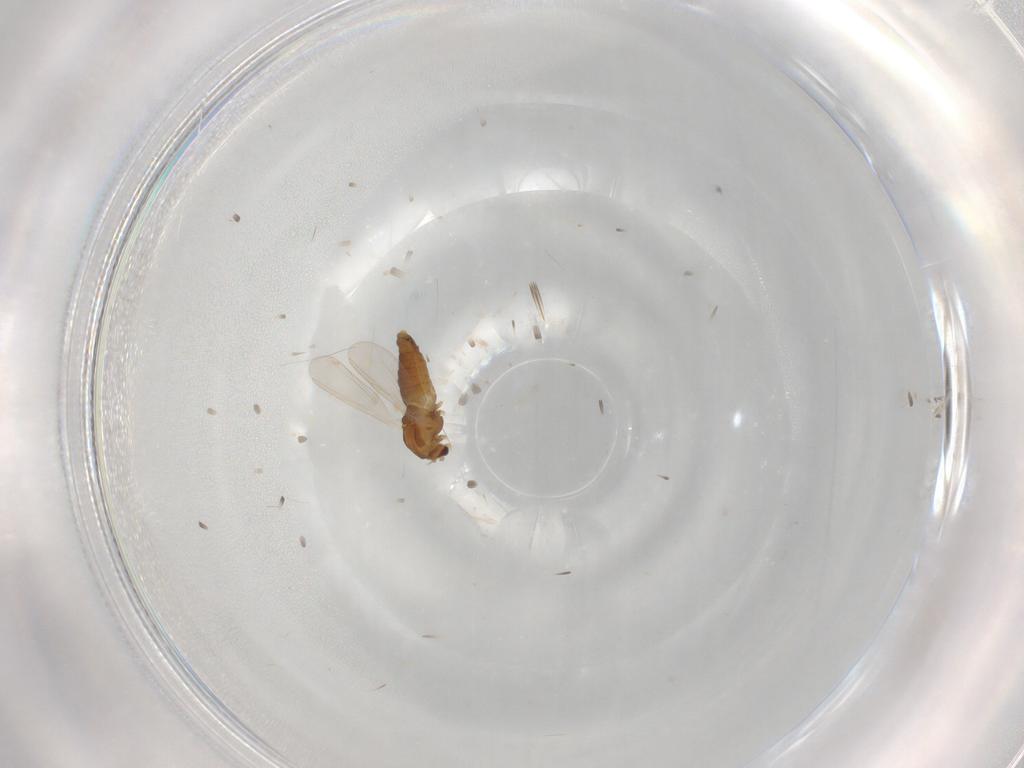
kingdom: Animalia
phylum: Arthropoda
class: Insecta
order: Diptera
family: Chironomidae
